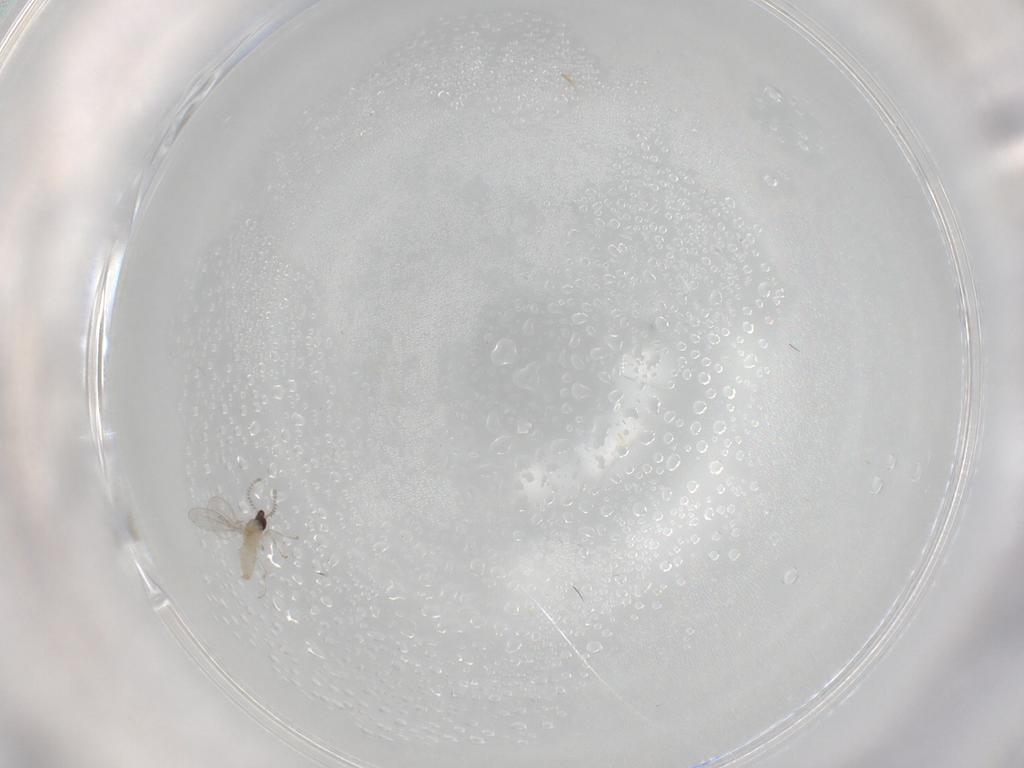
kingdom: Animalia
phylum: Arthropoda
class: Insecta
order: Diptera
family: Cecidomyiidae
